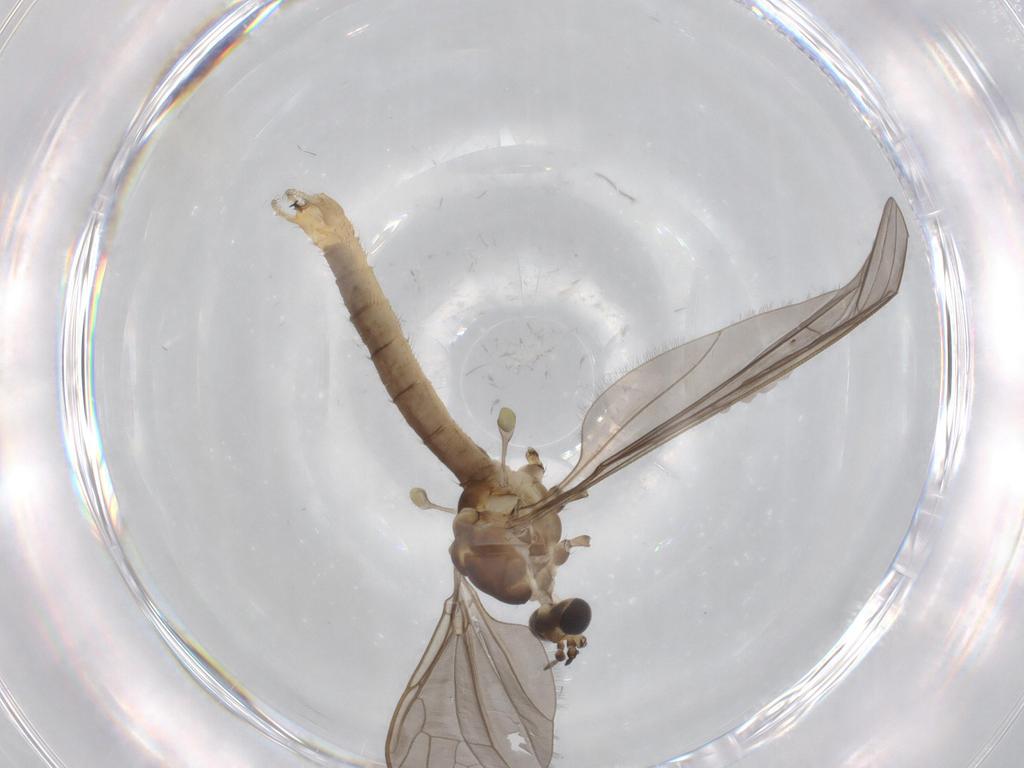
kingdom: Animalia
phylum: Arthropoda
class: Insecta
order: Diptera
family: Phoridae
